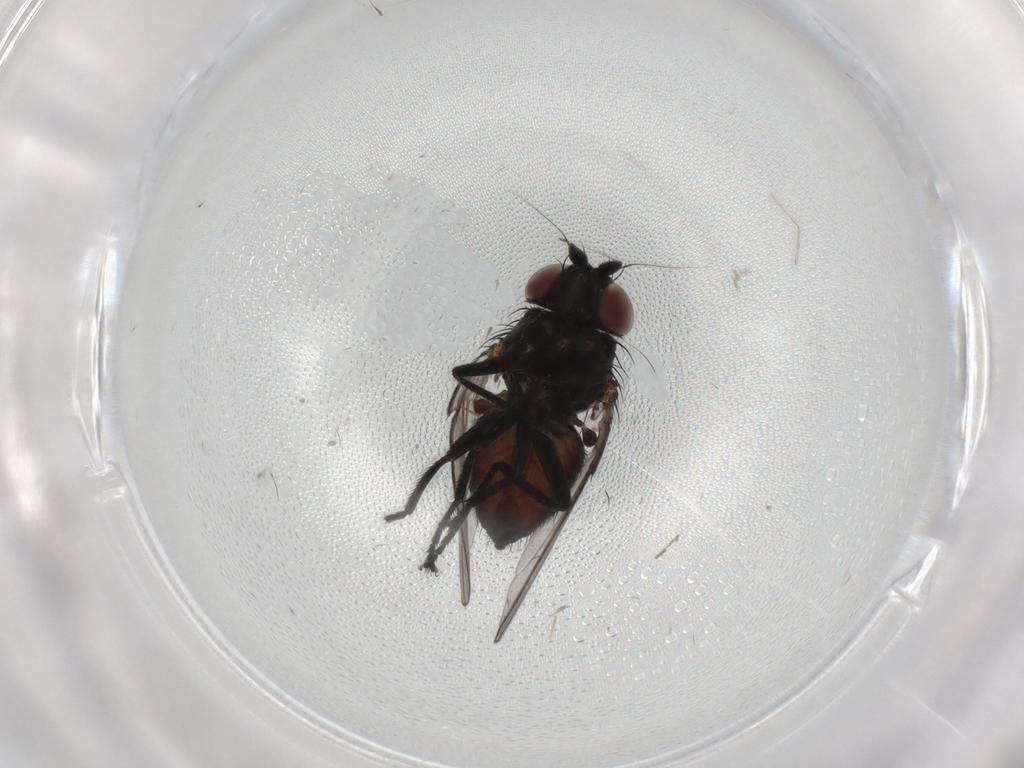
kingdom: Animalia
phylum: Arthropoda
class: Insecta
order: Diptera
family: Milichiidae
